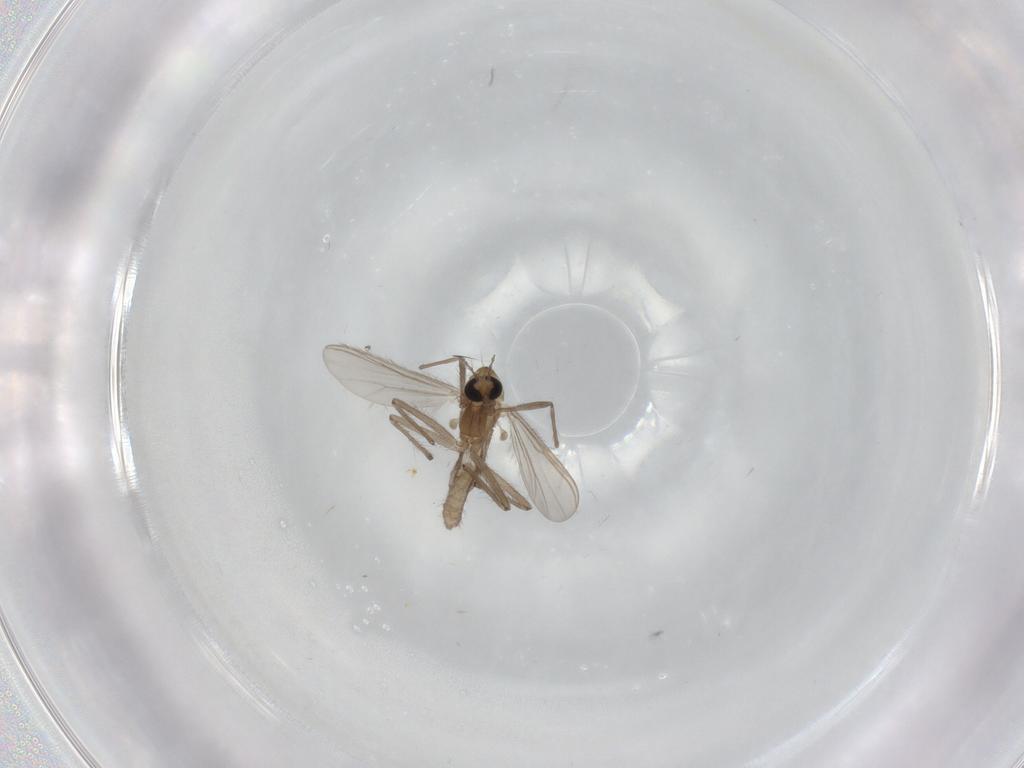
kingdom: Animalia
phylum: Arthropoda
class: Insecta
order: Diptera
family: Chironomidae
